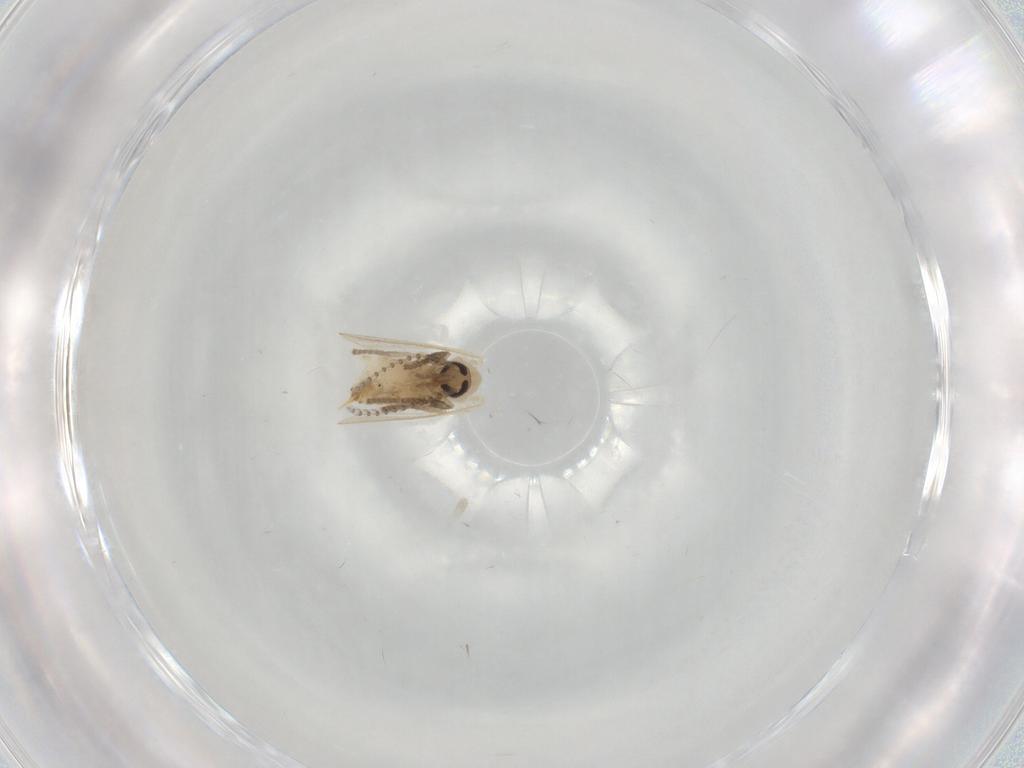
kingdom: Animalia
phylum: Arthropoda
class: Insecta
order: Diptera
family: Psychodidae
